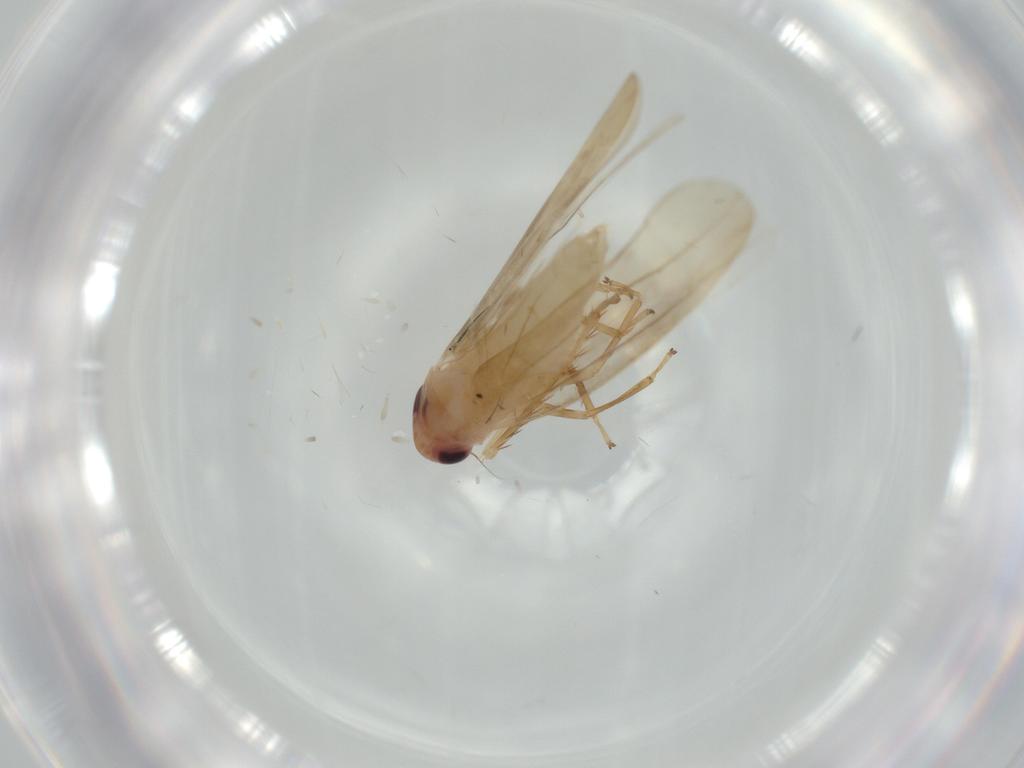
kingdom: Animalia
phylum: Arthropoda
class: Insecta
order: Hemiptera
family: Cicadellidae
